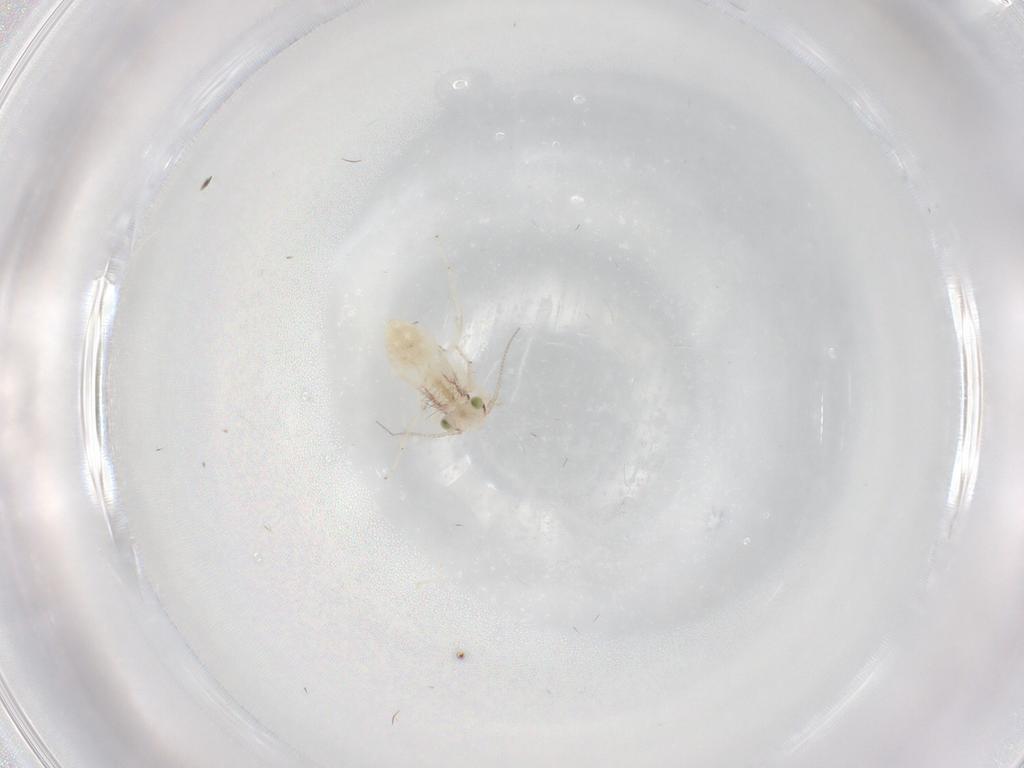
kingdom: Animalia
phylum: Arthropoda
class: Insecta
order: Psocodea
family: Lepidopsocidae
